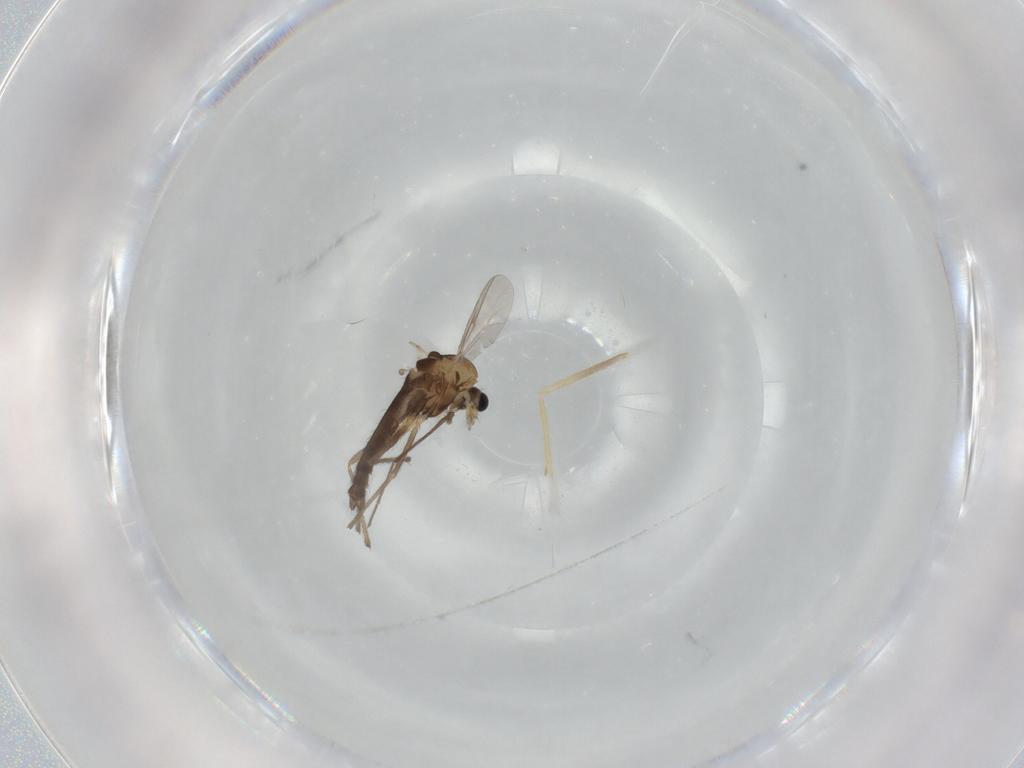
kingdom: Animalia
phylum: Arthropoda
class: Insecta
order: Diptera
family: Chironomidae
